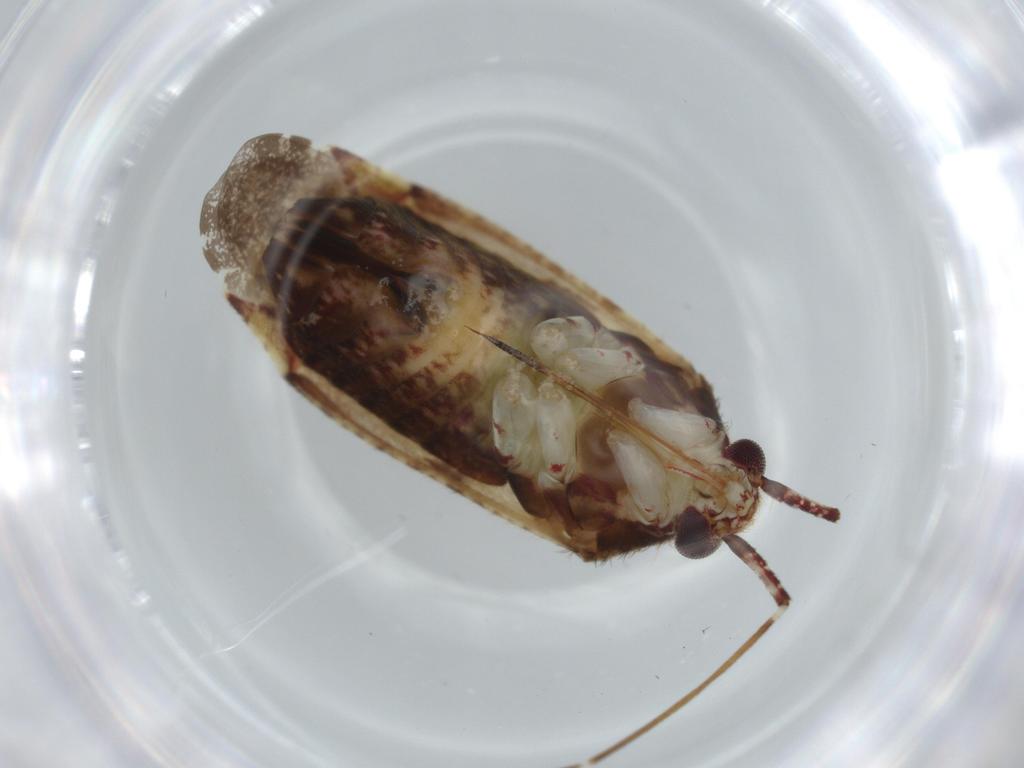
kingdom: Animalia
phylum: Arthropoda
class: Insecta
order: Hemiptera
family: Miridae
